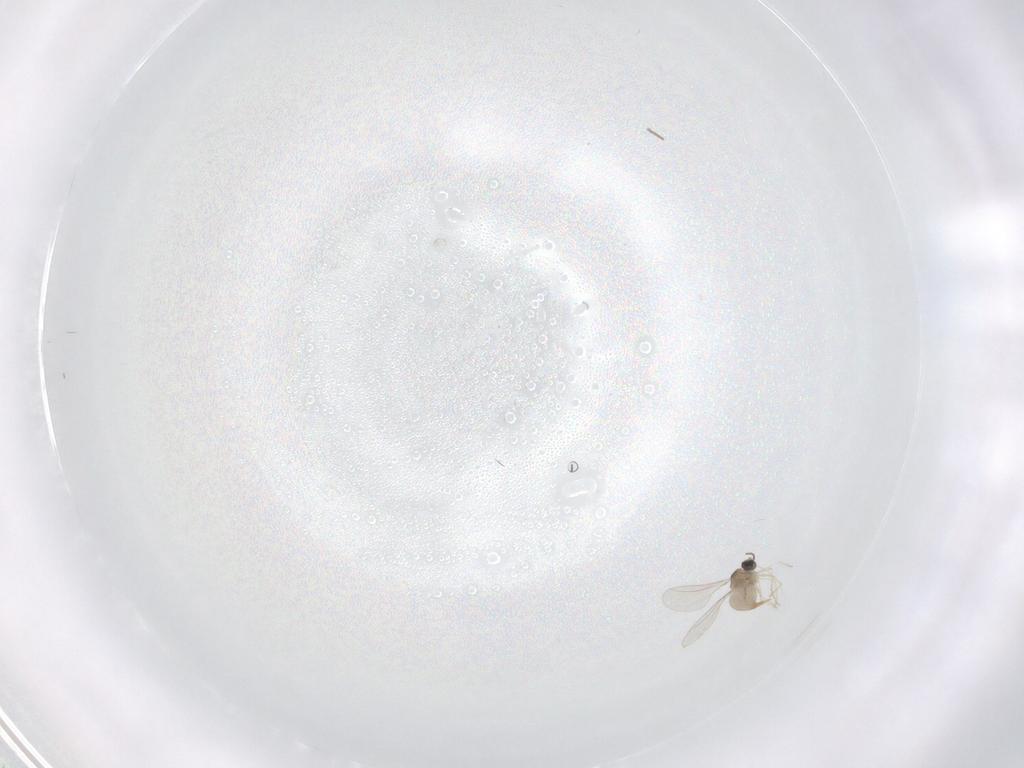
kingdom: Animalia
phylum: Arthropoda
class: Insecta
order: Diptera
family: Cecidomyiidae
